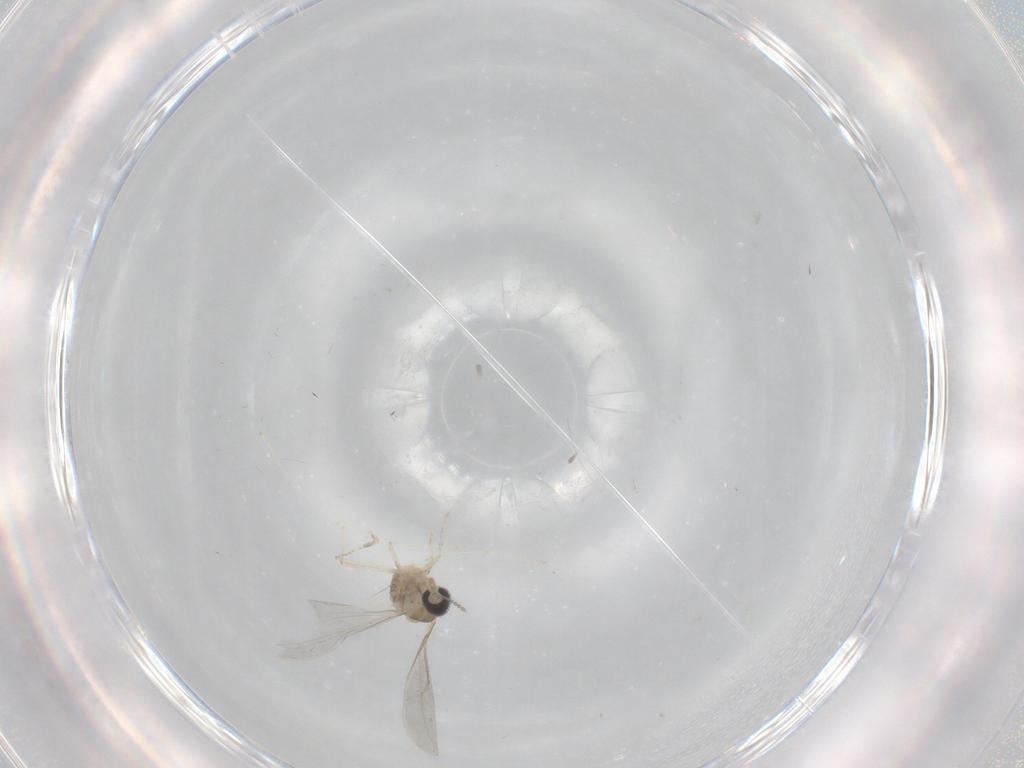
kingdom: Animalia
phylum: Arthropoda
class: Insecta
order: Diptera
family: Cecidomyiidae
